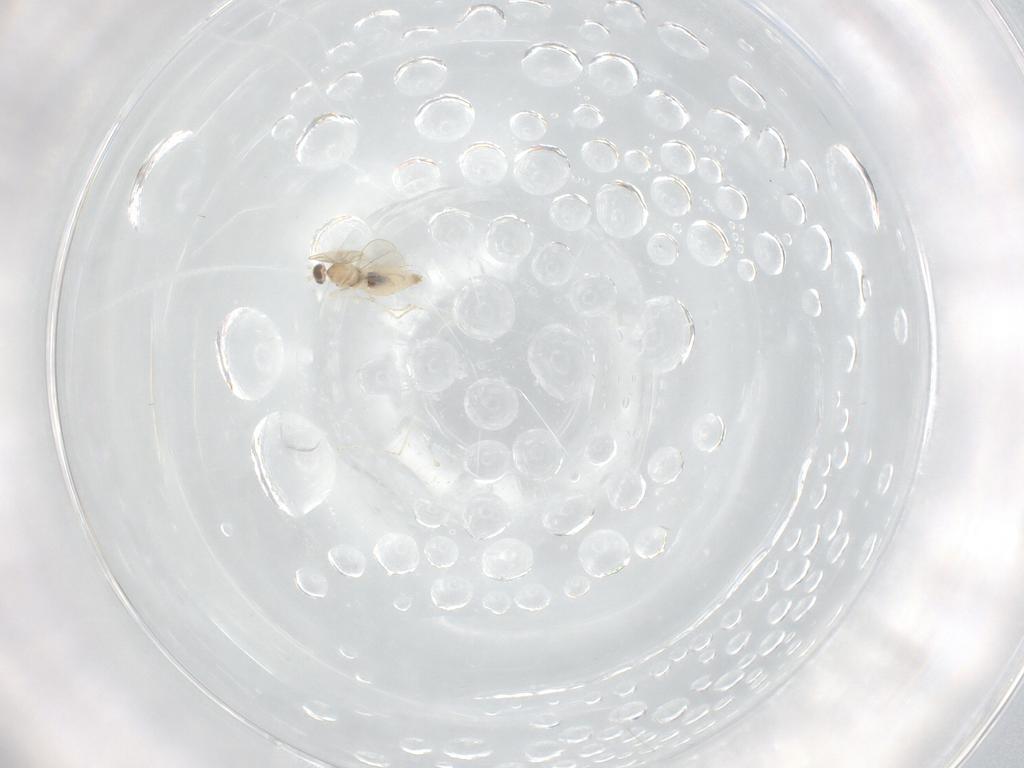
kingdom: Animalia
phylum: Arthropoda
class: Insecta
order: Diptera
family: Cecidomyiidae
